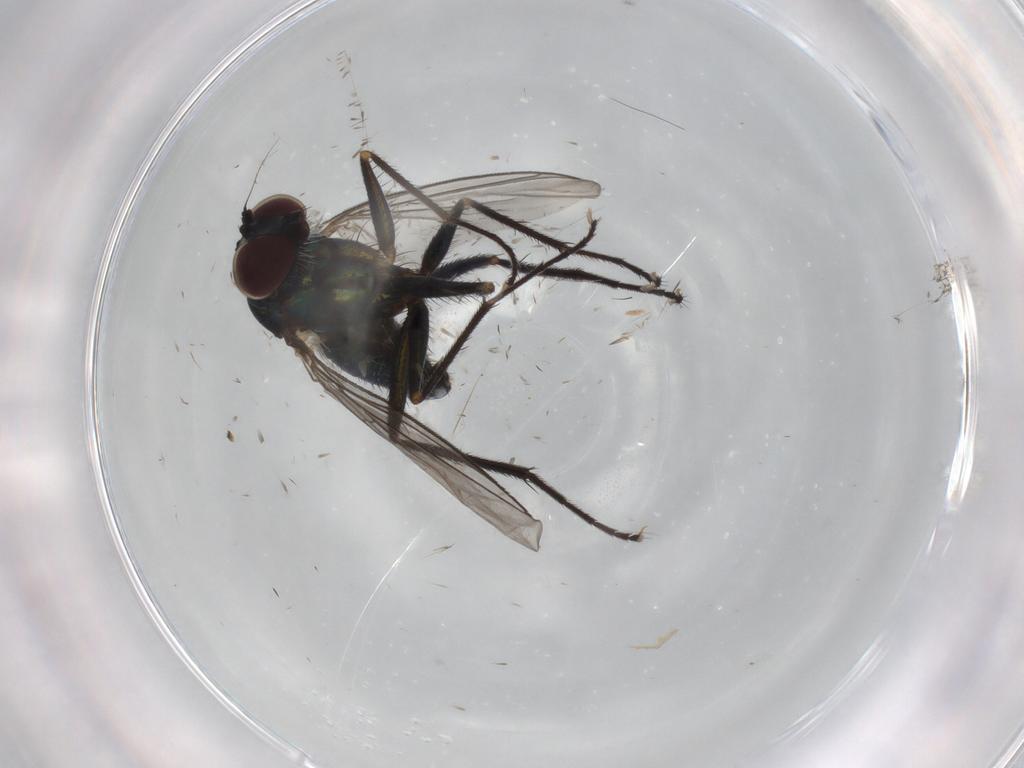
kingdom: Animalia
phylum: Arthropoda
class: Insecta
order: Diptera
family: Dolichopodidae
